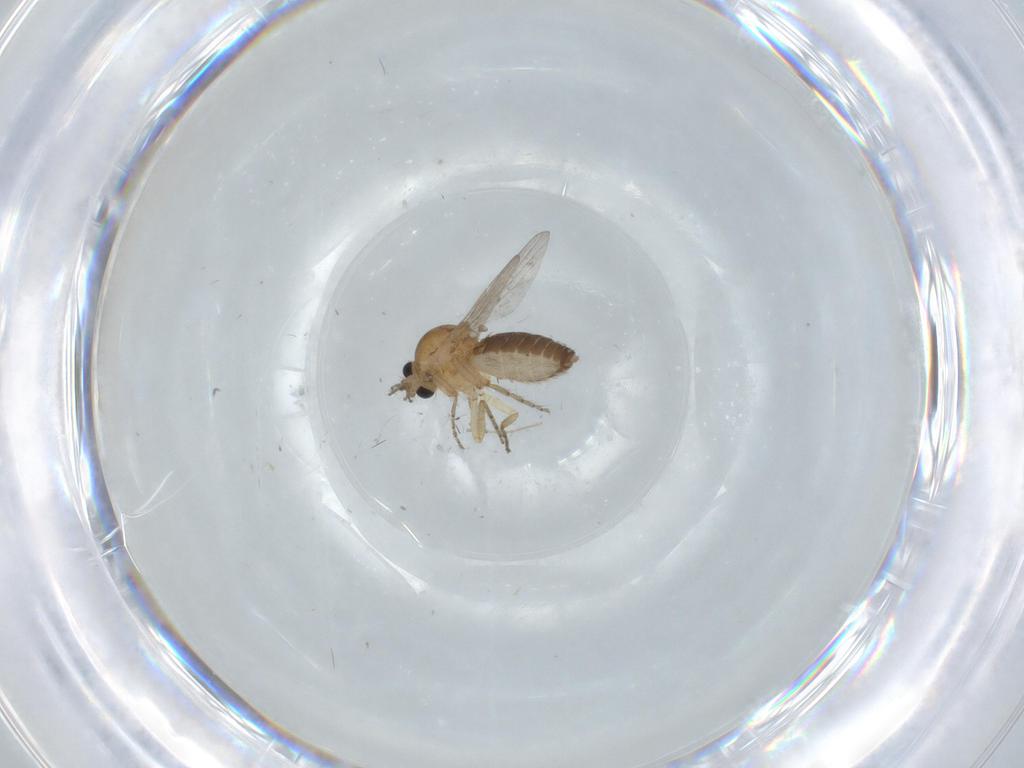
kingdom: Animalia
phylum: Arthropoda
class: Insecta
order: Diptera
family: Ceratopogonidae
